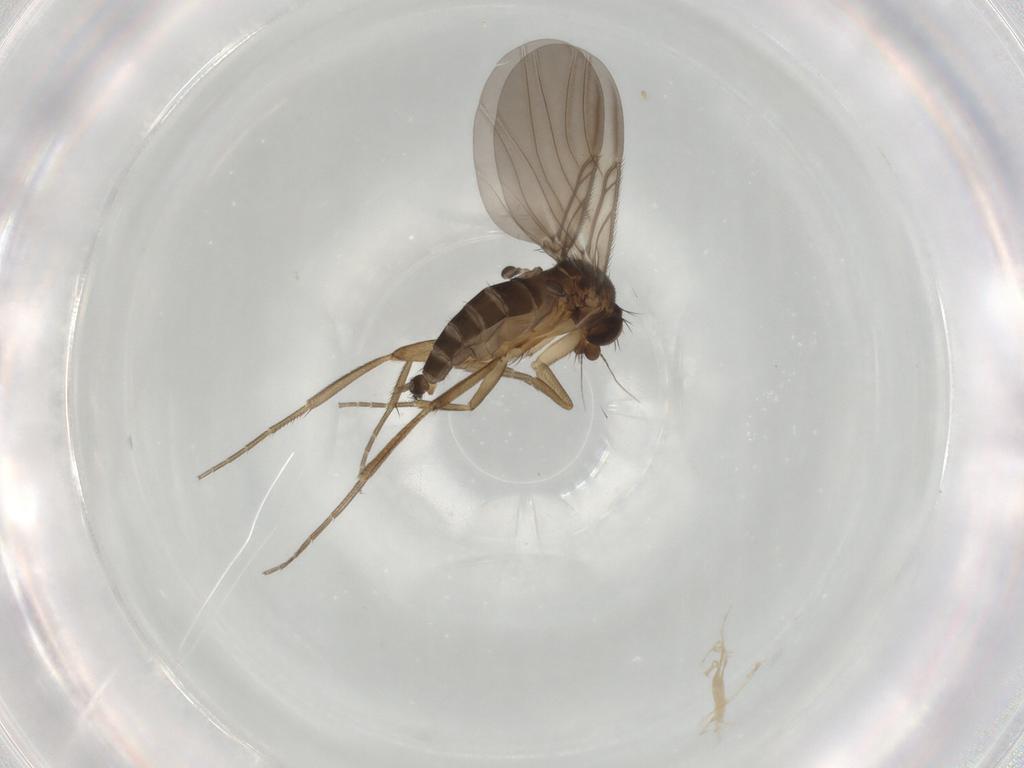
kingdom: Animalia
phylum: Arthropoda
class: Insecta
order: Diptera
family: Phoridae
